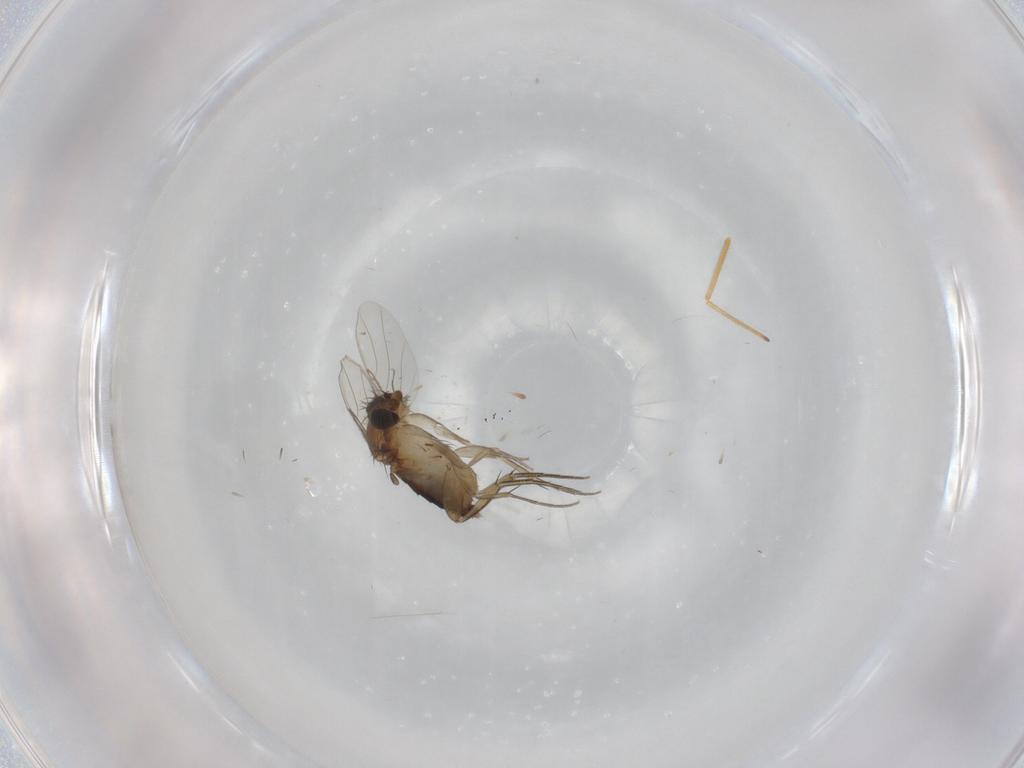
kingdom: Animalia
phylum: Arthropoda
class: Insecta
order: Diptera
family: Phoridae
